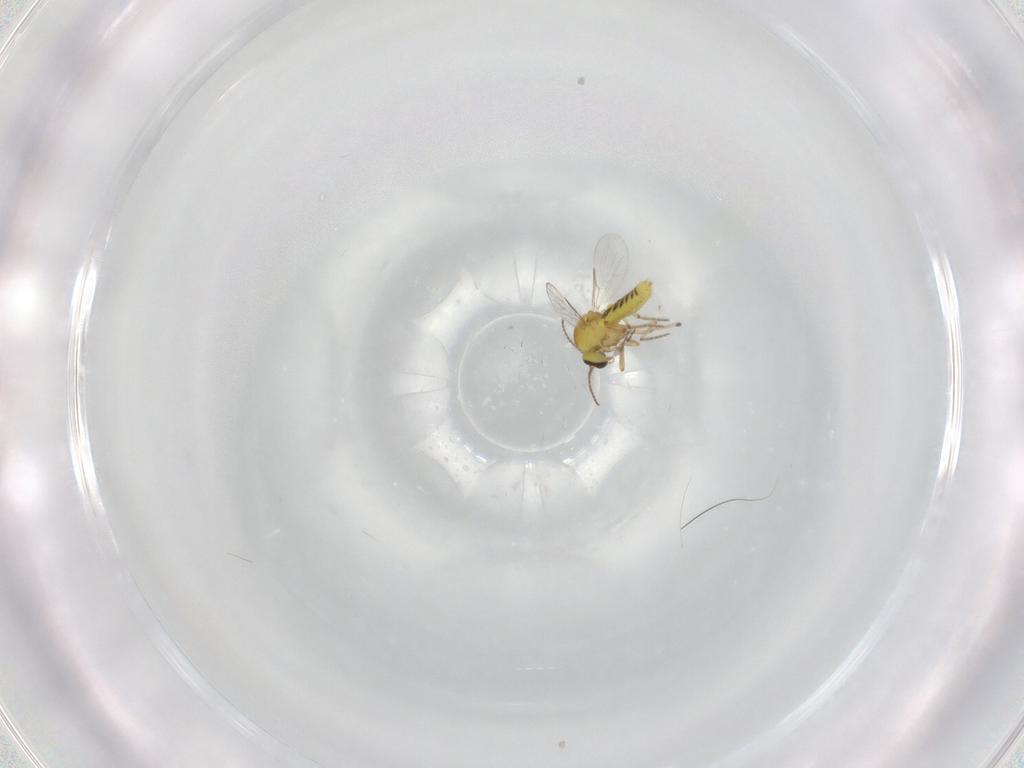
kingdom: Animalia
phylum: Arthropoda
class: Insecta
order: Diptera
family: Ceratopogonidae
